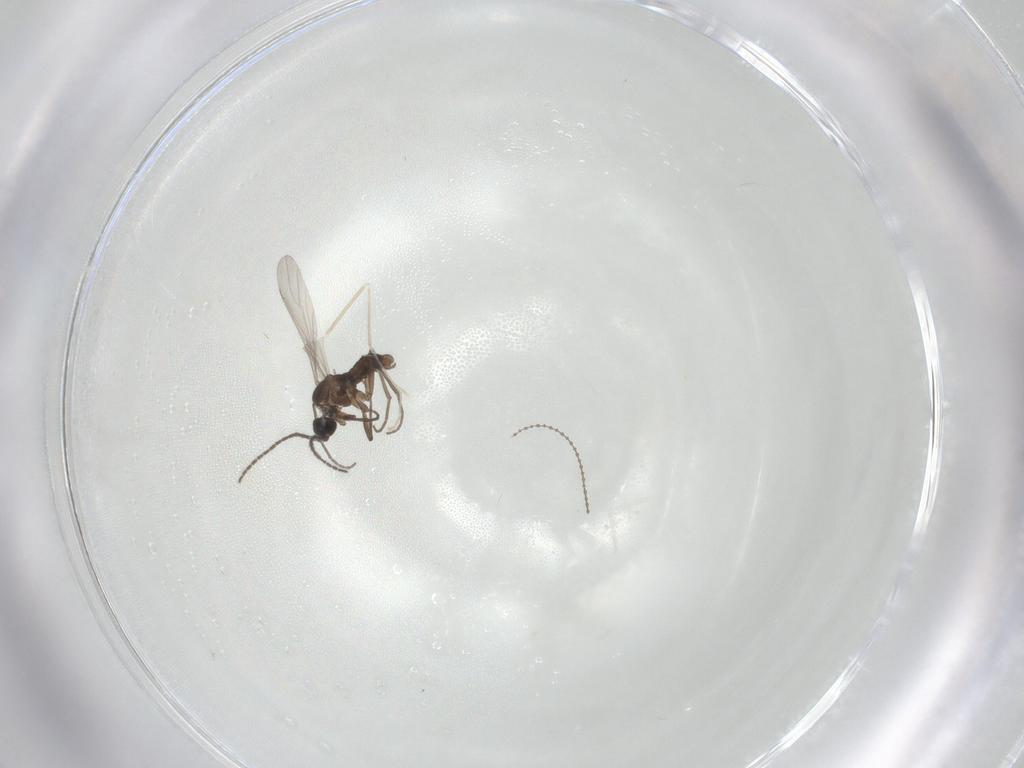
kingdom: Animalia
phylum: Arthropoda
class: Insecta
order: Diptera
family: Sciaridae
